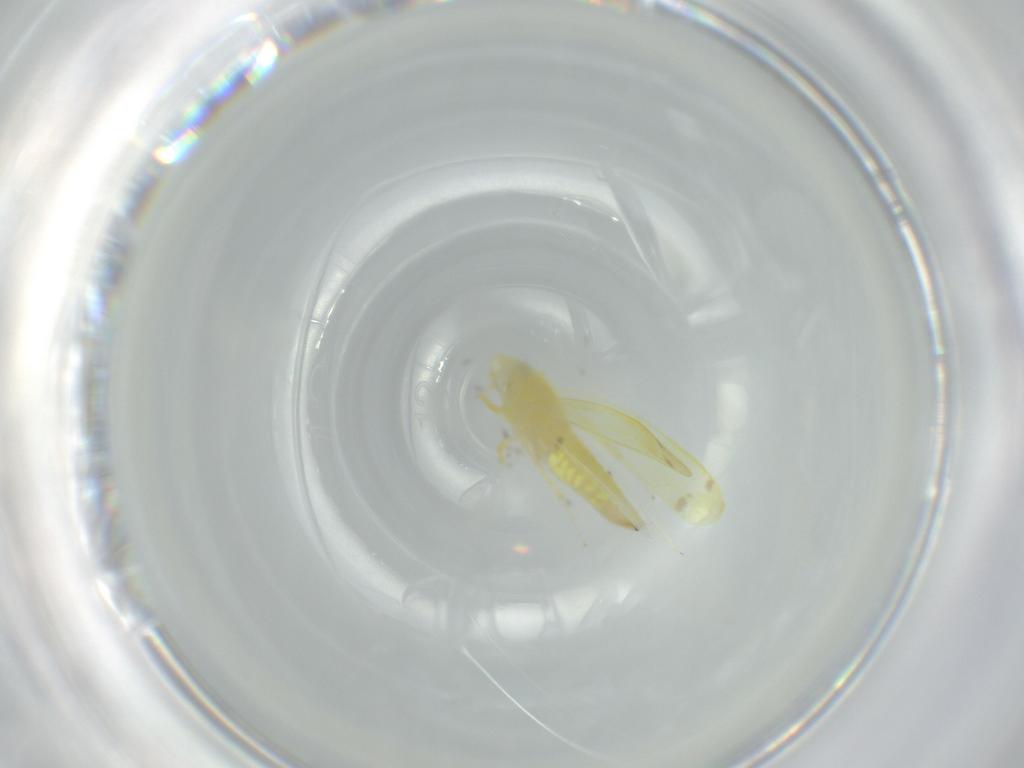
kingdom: Animalia
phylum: Arthropoda
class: Insecta
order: Hemiptera
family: Cicadellidae
